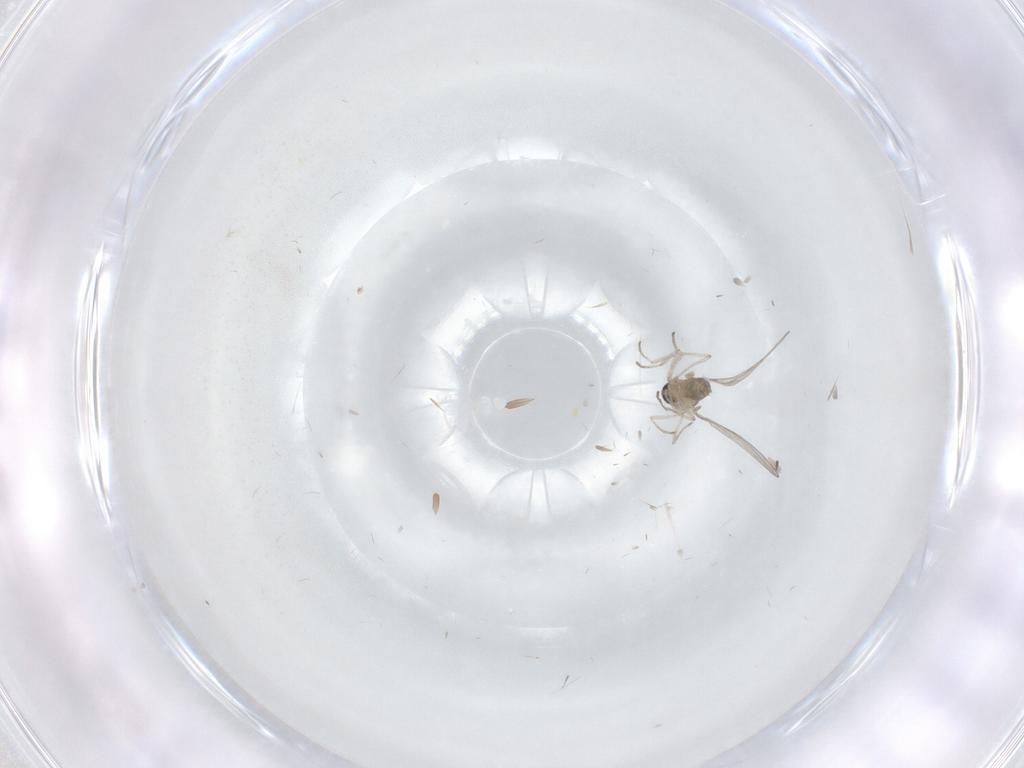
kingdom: Animalia
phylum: Arthropoda
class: Insecta
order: Diptera
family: Cecidomyiidae
